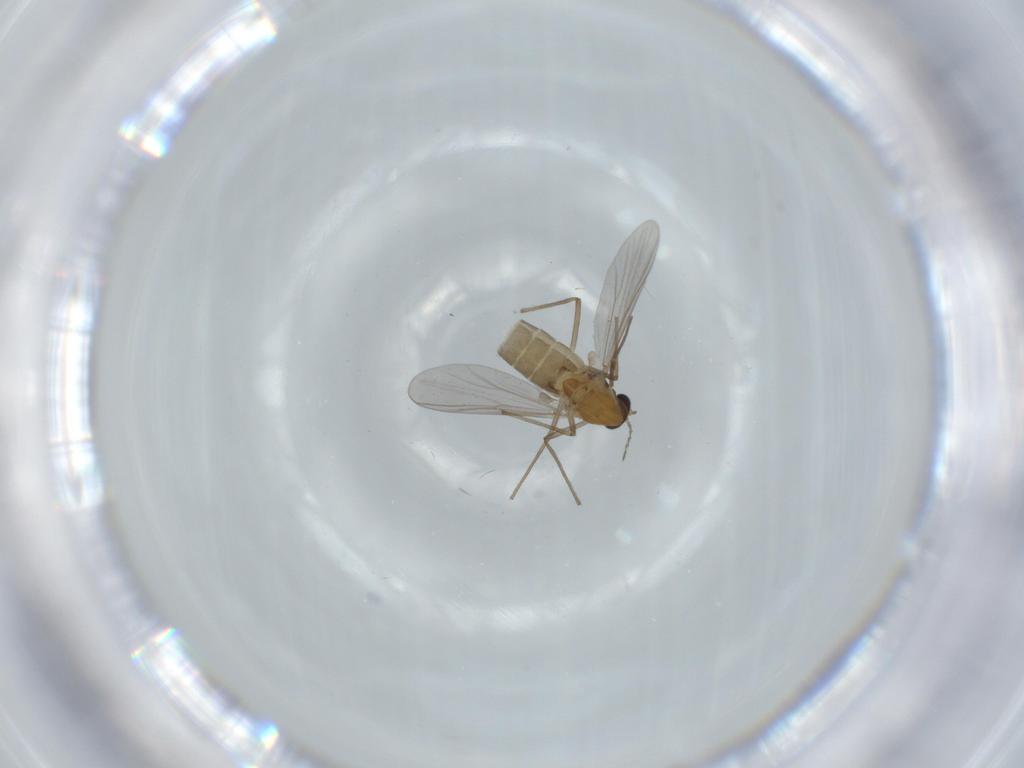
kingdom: Animalia
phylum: Arthropoda
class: Insecta
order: Diptera
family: Chironomidae
